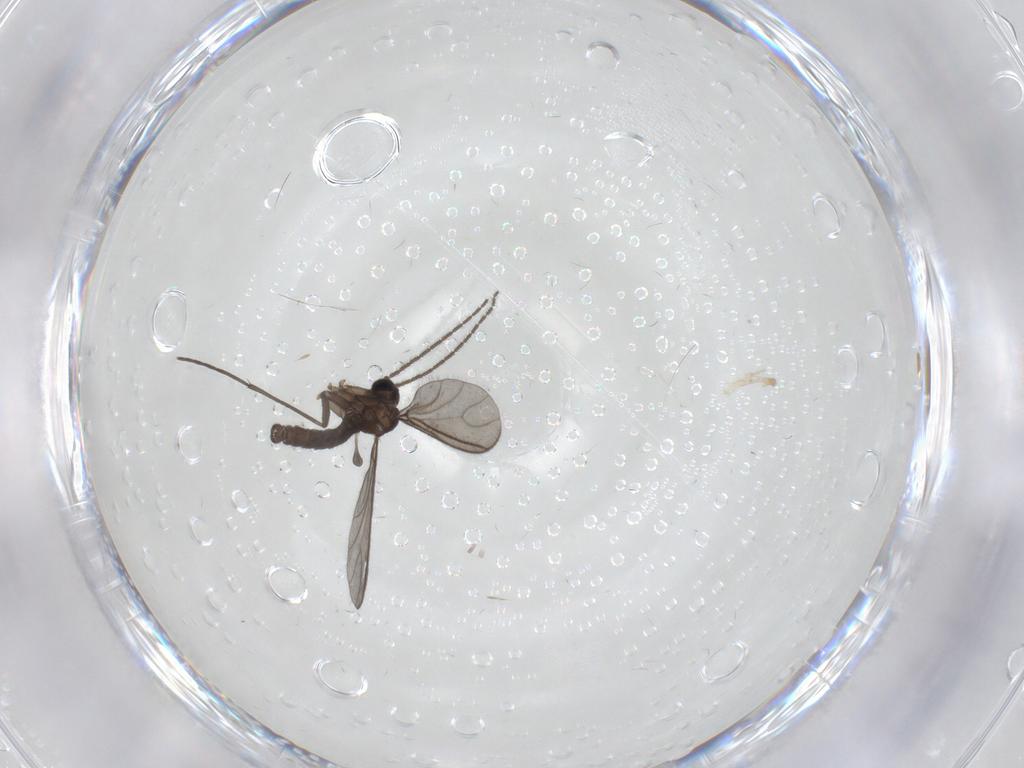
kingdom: Animalia
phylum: Arthropoda
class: Insecta
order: Diptera
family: Sciaridae
